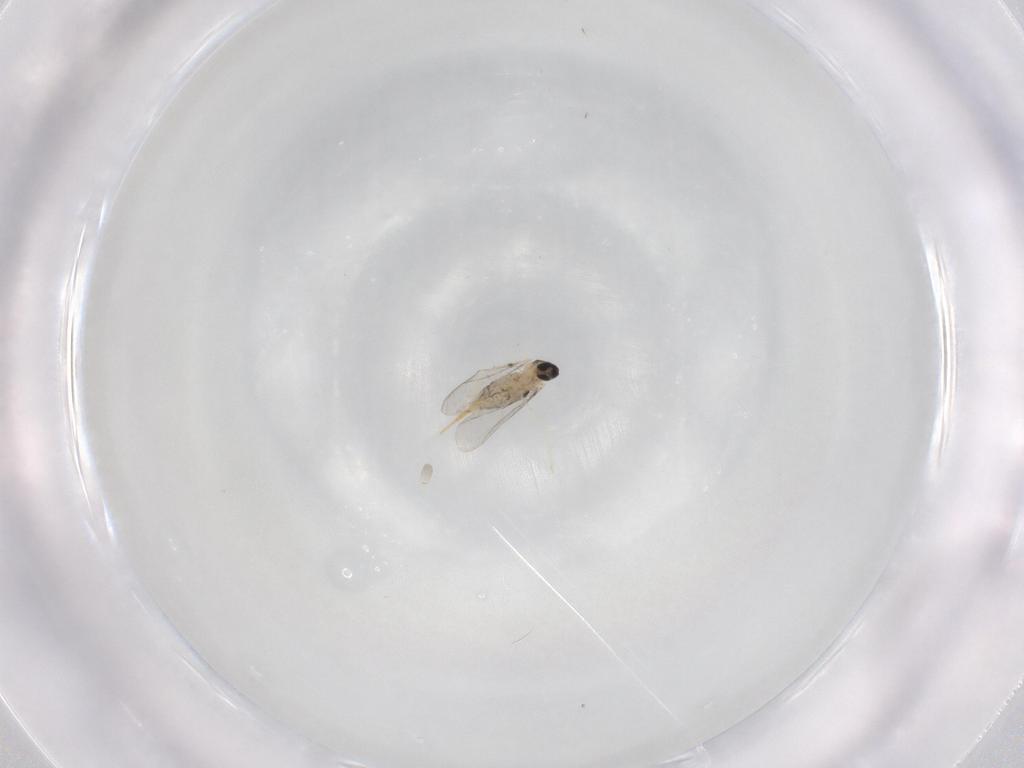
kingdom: Animalia
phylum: Arthropoda
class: Insecta
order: Diptera
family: Cecidomyiidae
